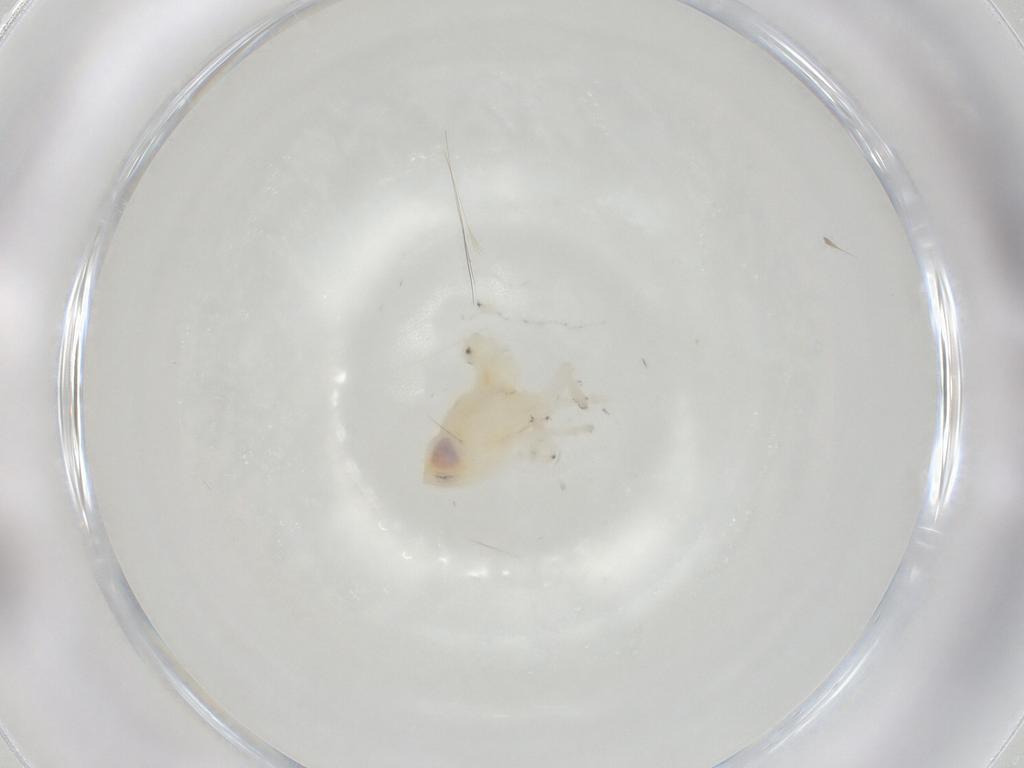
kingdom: Animalia
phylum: Arthropoda
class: Insecta
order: Hemiptera
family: Nogodinidae
